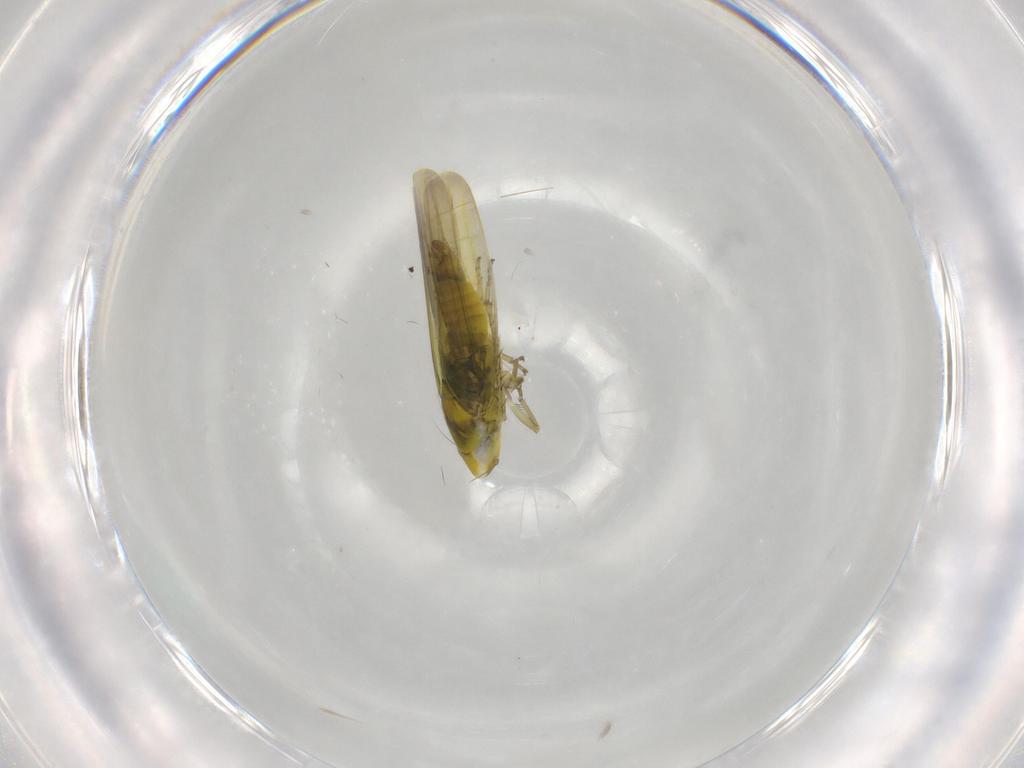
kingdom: Animalia
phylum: Arthropoda
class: Insecta
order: Hemiptera
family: Cicadellidae
